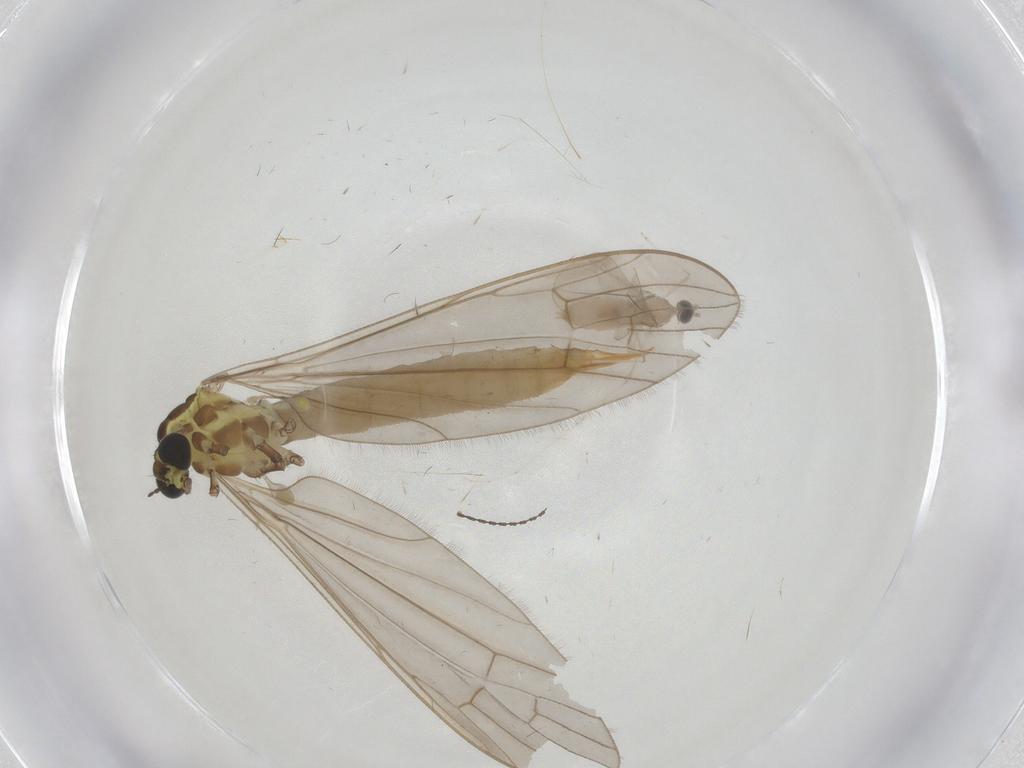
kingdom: Animalia
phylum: Arthropoda
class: Insecta
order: Diptera
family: Limoniidae
